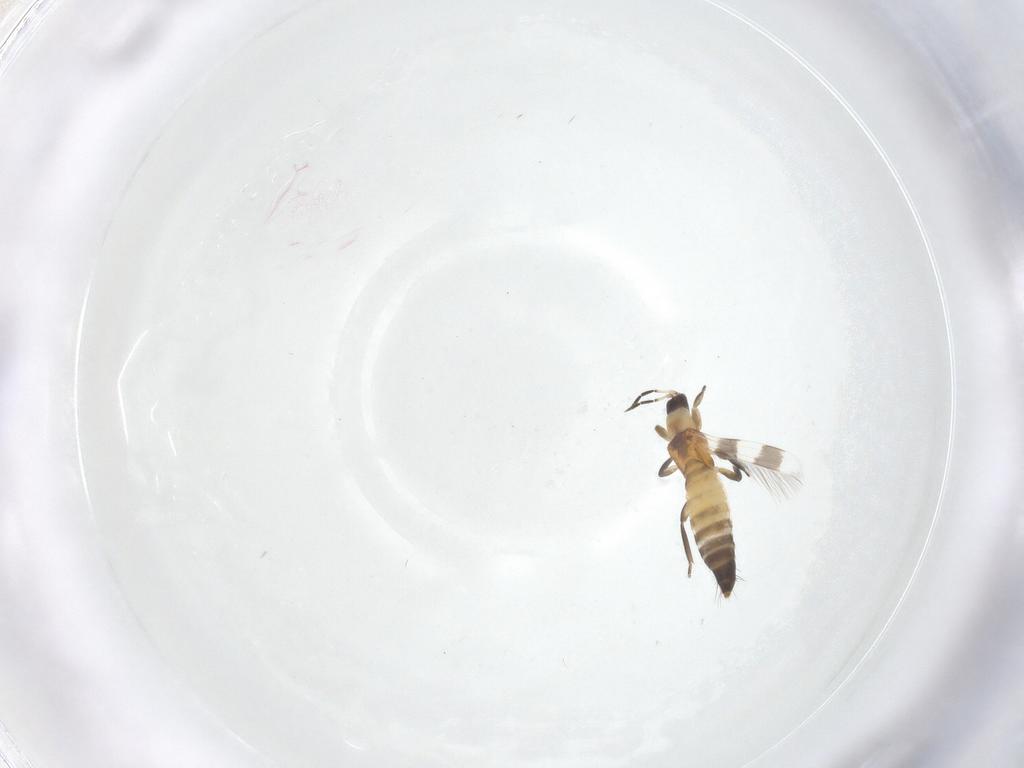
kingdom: Animalia
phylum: Arthropoda
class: Insecta
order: Thysanoptera
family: Aeolothripidae
